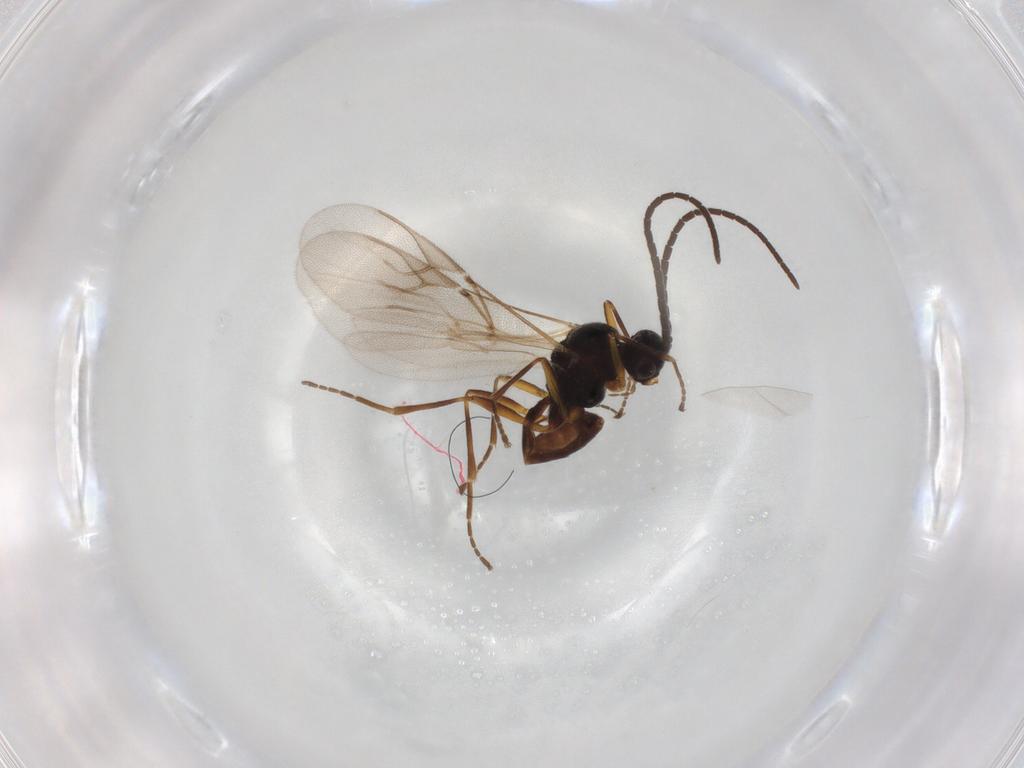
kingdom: Animalia
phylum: Arthropoda
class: Insecta
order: Hymenoptera
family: Braconidae
